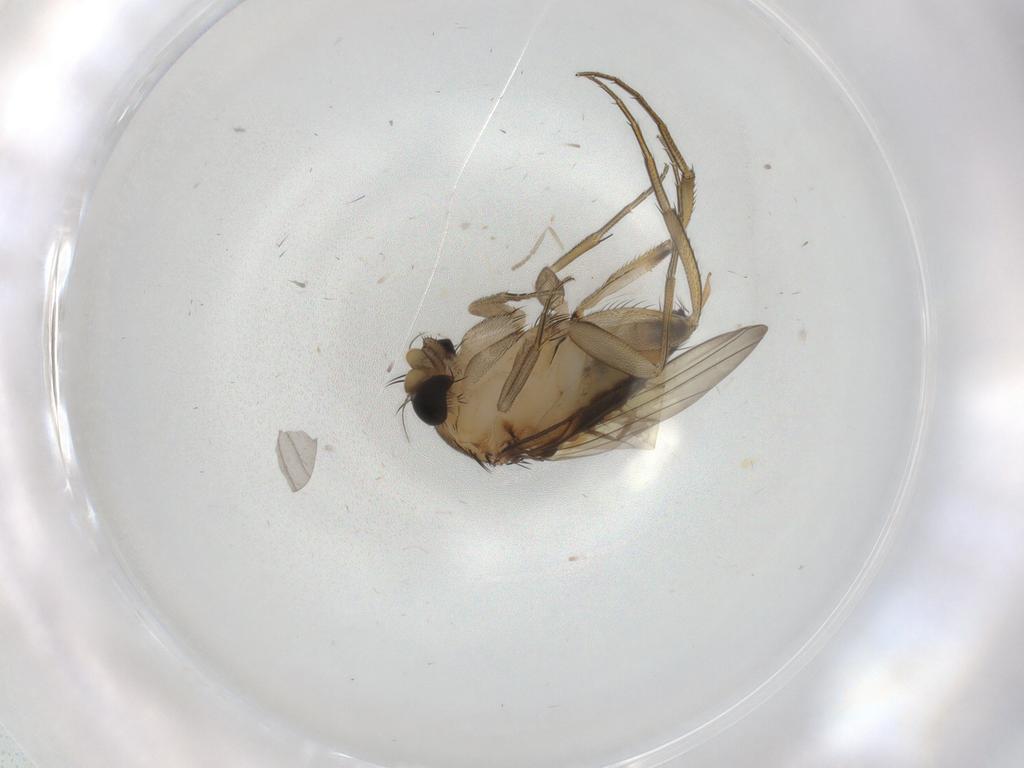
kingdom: Animalia
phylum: Arthropoda
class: Insecta
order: Diptera
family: Phoridae
